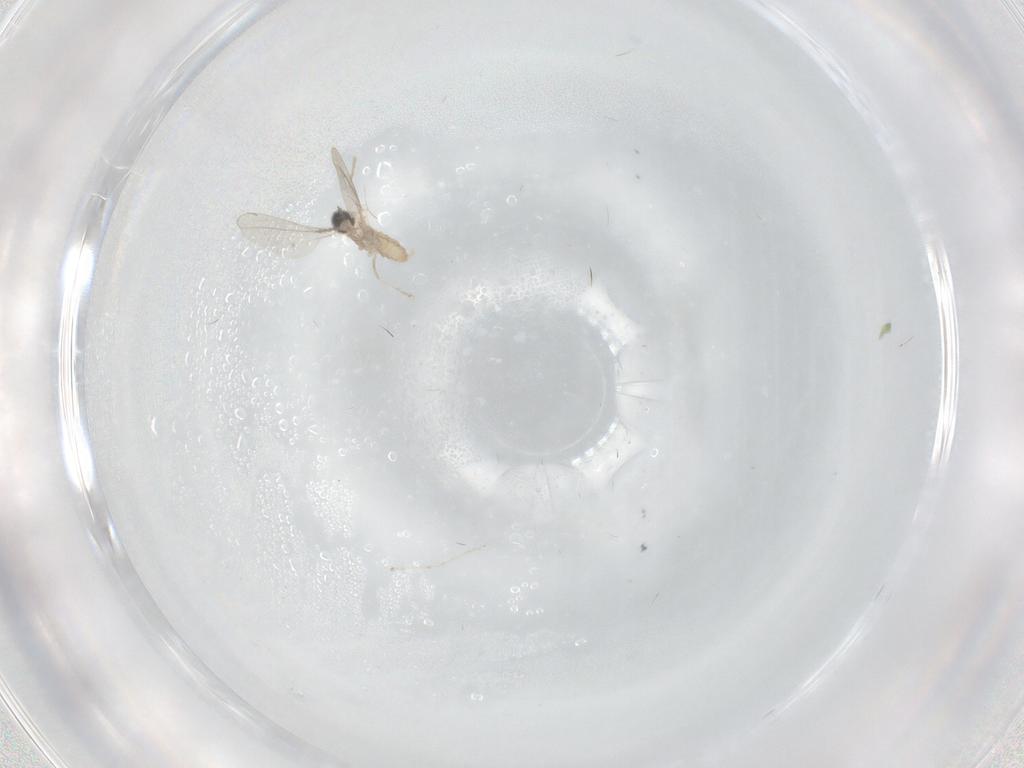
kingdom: Animalia
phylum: Arthropoda
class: Insecta
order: Diptera
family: Cecidomyiidae
